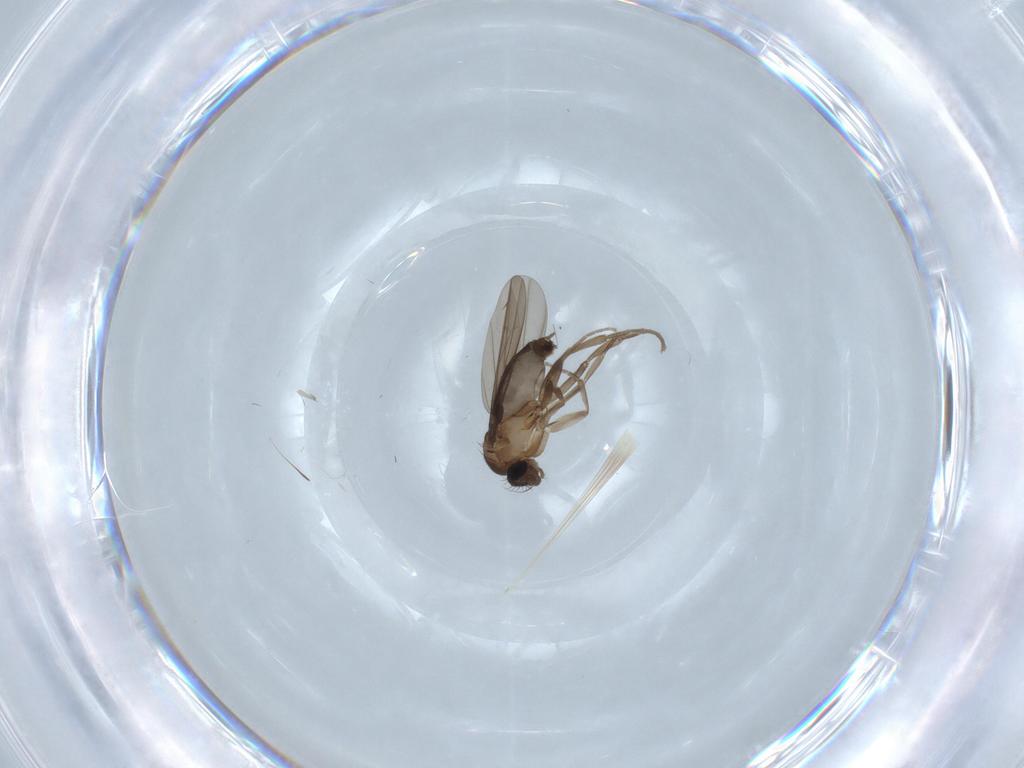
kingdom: Animalia
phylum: Arthropoda
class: Insecta
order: Diptera
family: Phoridae
